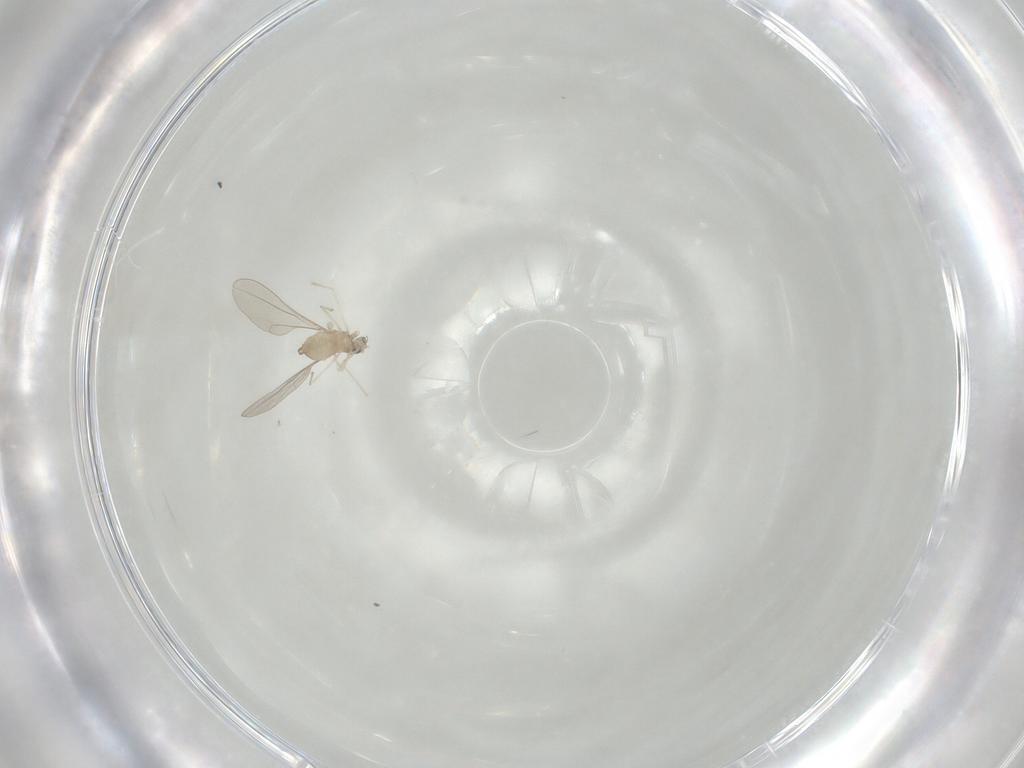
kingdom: Animalia
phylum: Arthropoda
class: Insecta
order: Diptera
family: Cecidomyiidae
